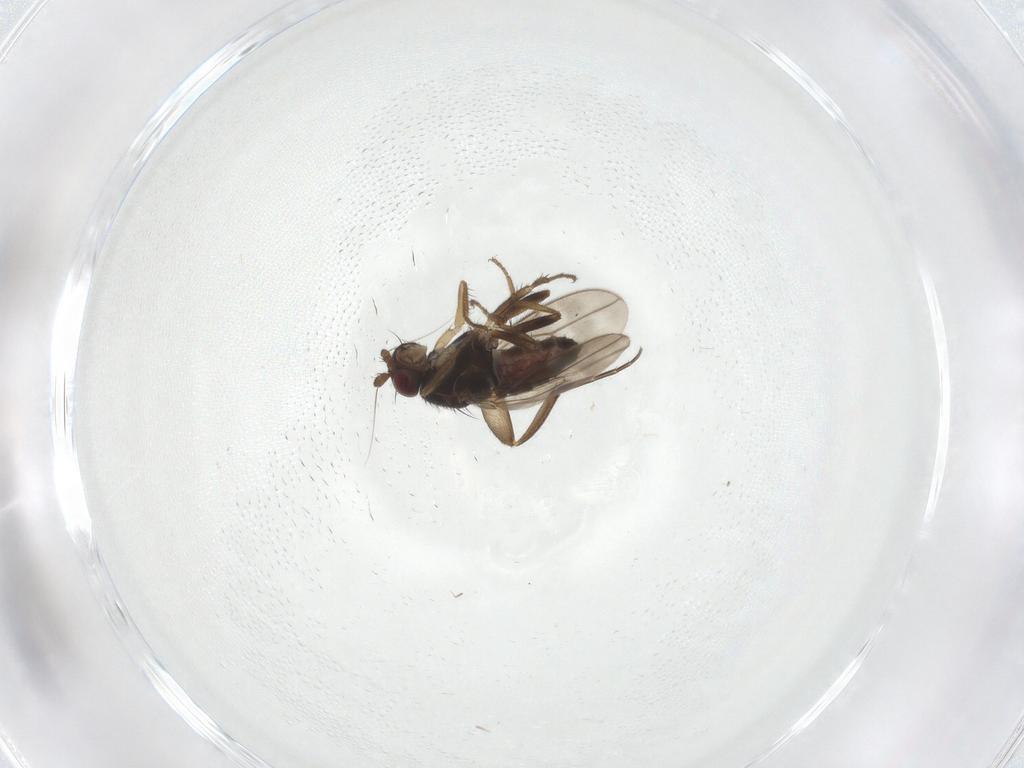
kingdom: Animalia
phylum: Arthropoda
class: Insecta
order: Diptera
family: Sphaeroceridae
